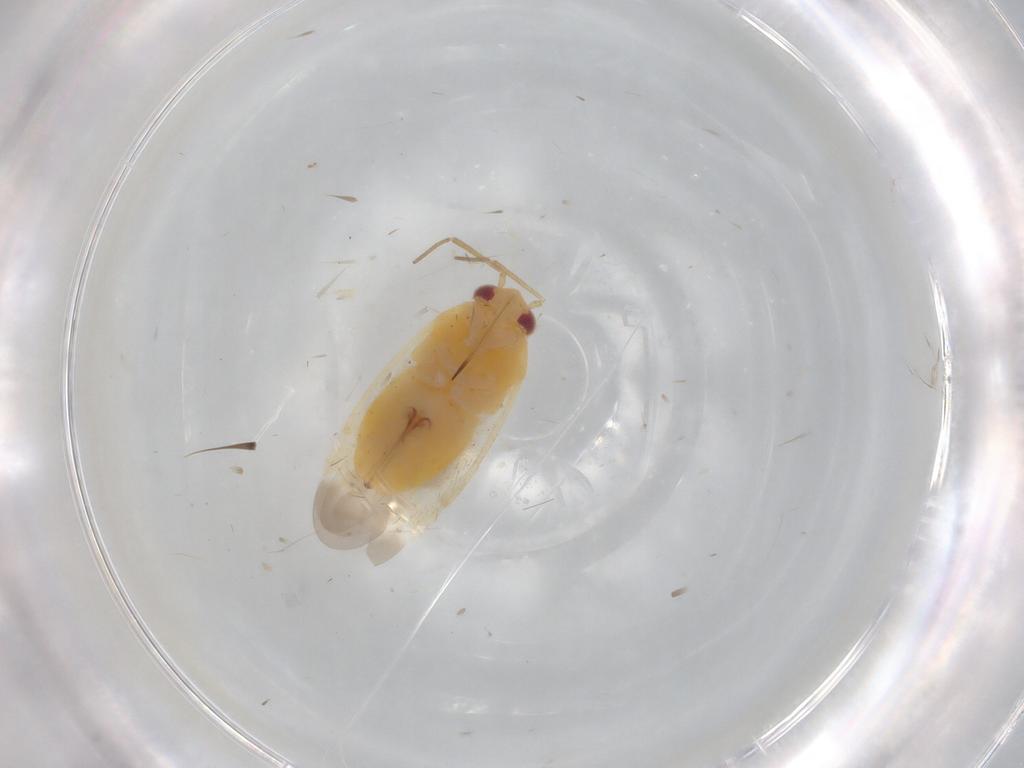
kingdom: Animalia
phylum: Arthropoda
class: Insecta
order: Hemiptera
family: Miridae
